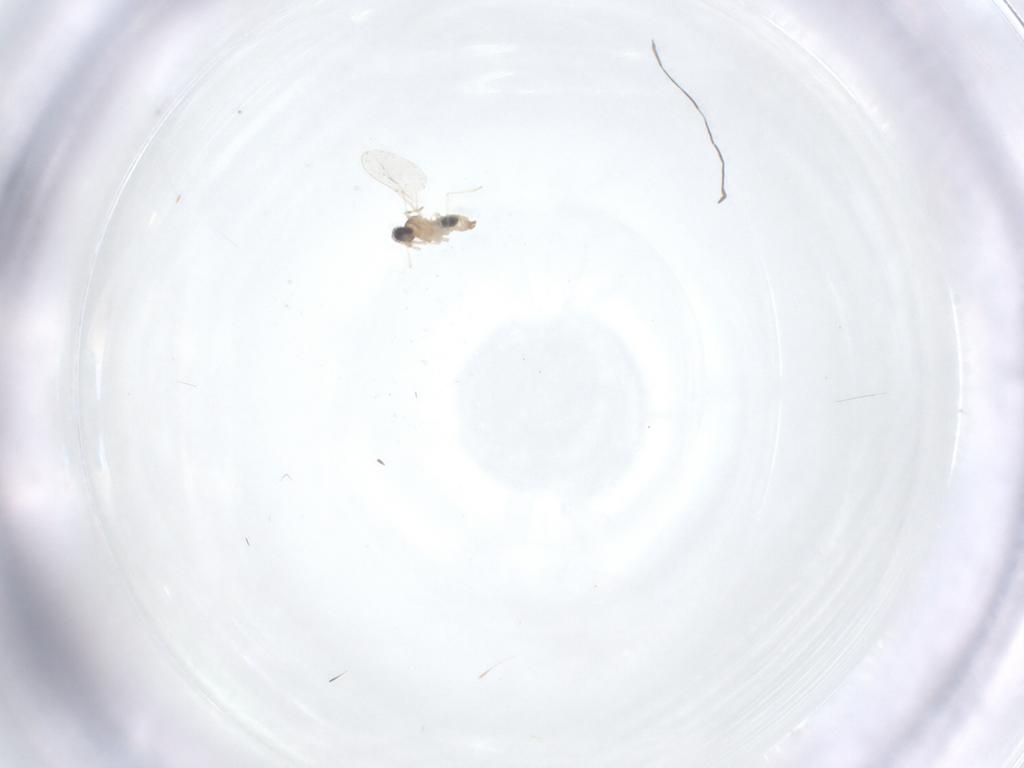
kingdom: Animalia
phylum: Arthropoda
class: Insecta
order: Diptera
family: Cecidomyiidae
